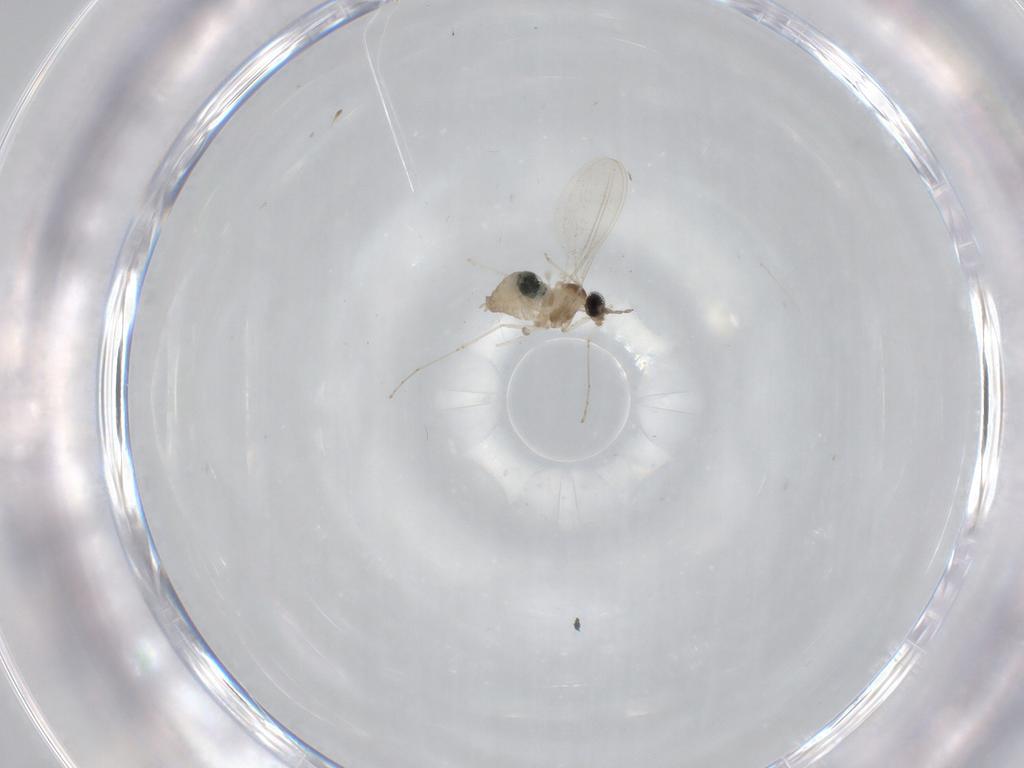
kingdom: Animalia
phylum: Arthropoda
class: Insecta
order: Diptera
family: Cecidomyiidae
